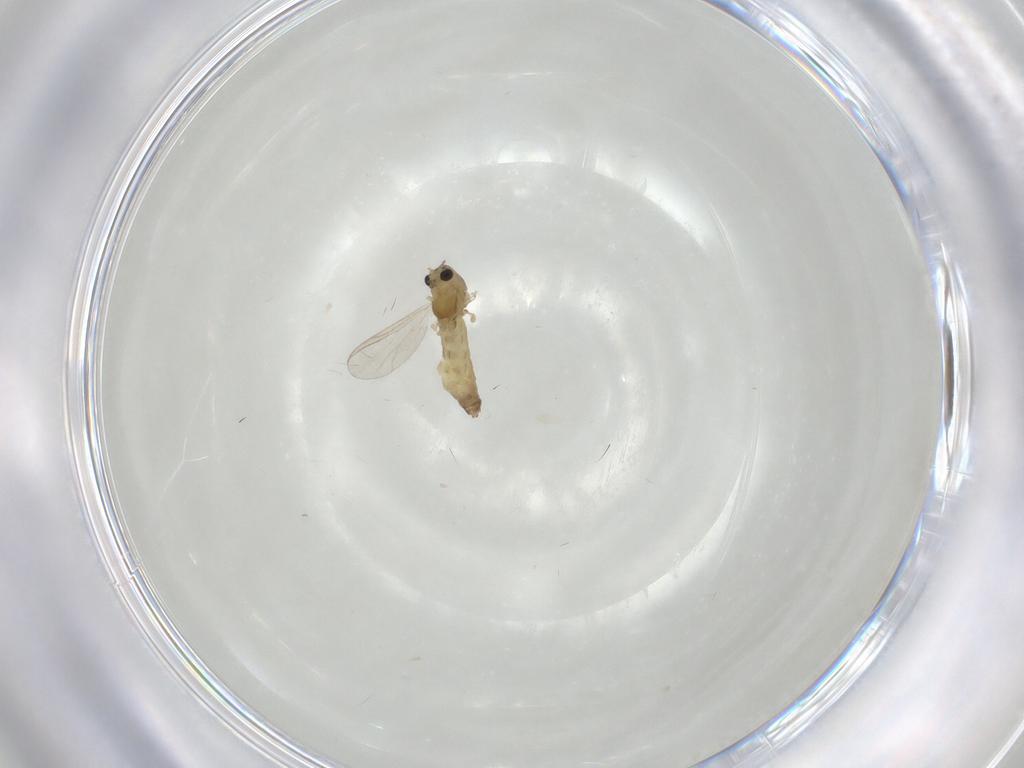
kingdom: Animalia
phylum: Arthropoda
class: Insecta
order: Diptera
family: Chironomidae
